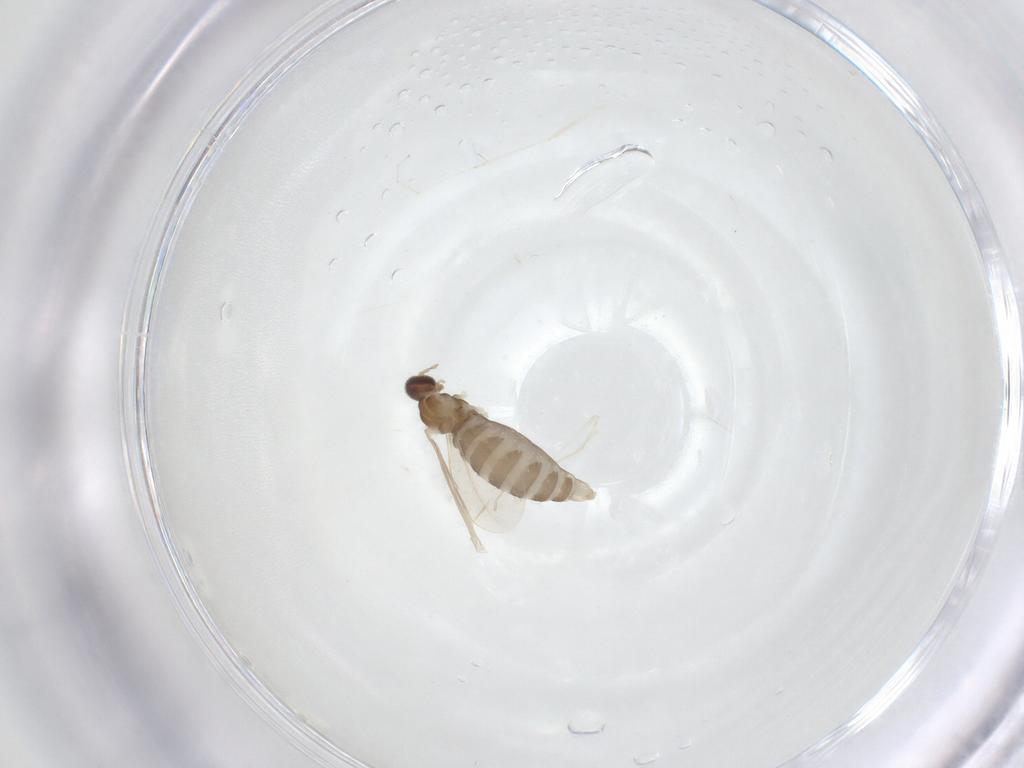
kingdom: Animalia
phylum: Arthropoda
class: Insecta
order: Diptera
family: Cecidomyiidae
